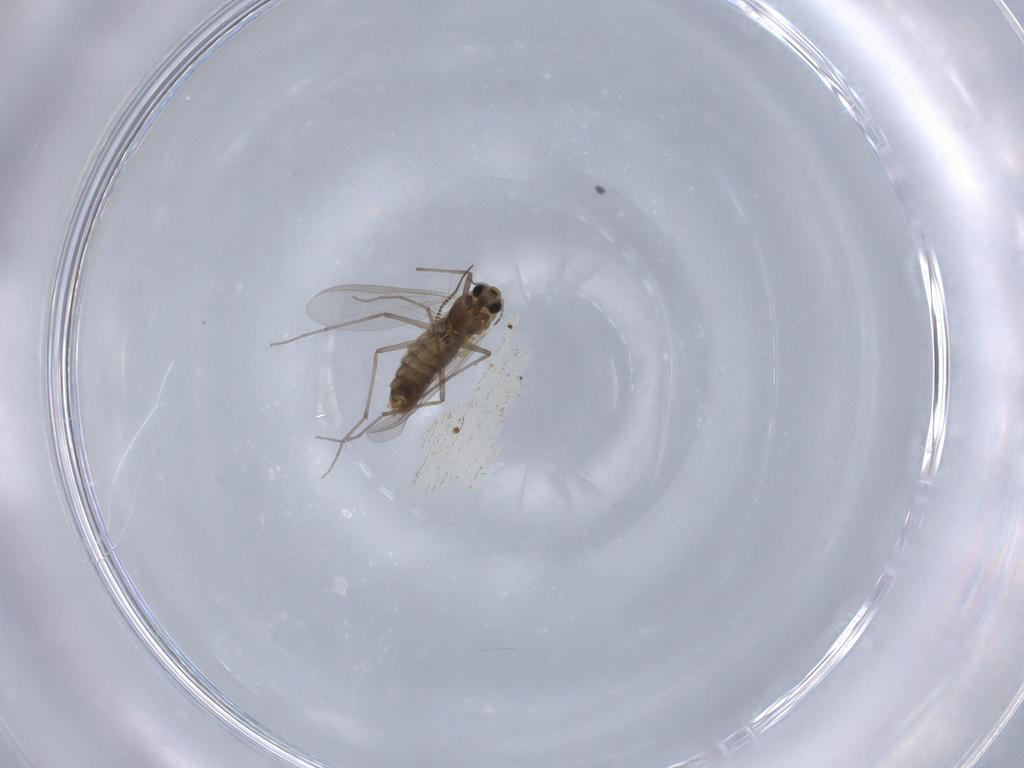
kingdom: Animalia
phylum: Arthropoda
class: Insecta
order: Diptera
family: Chironomidae
